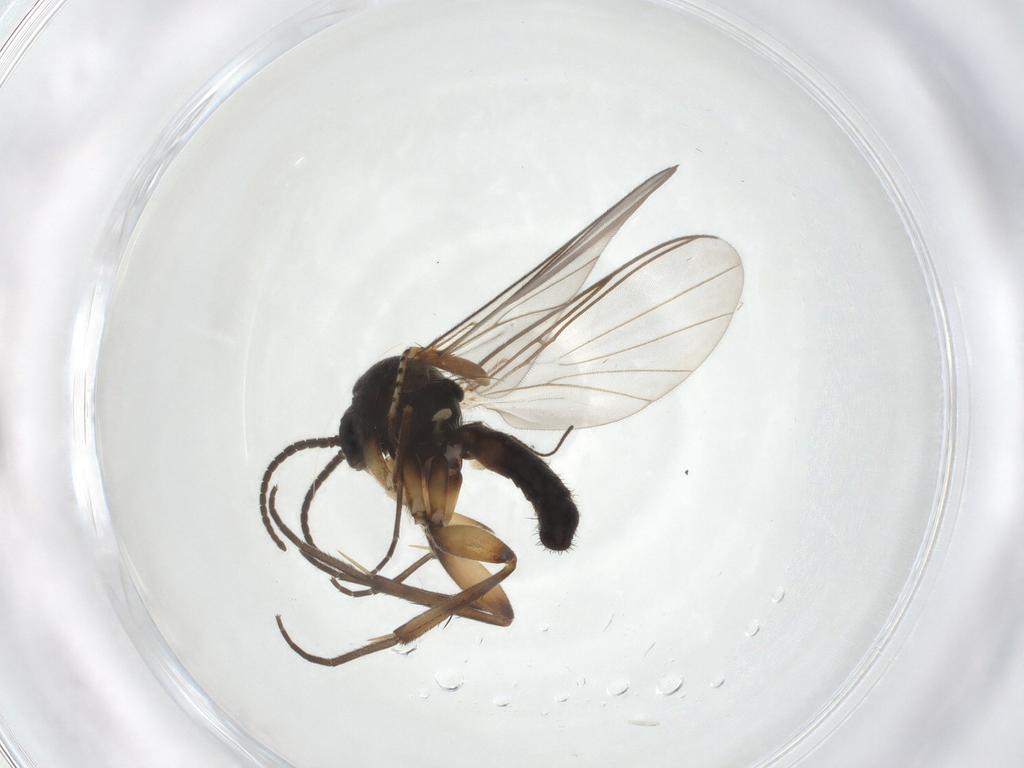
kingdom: Animalia
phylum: Arthropoda
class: Insecta
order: Diptera
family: Mycetophilidae
